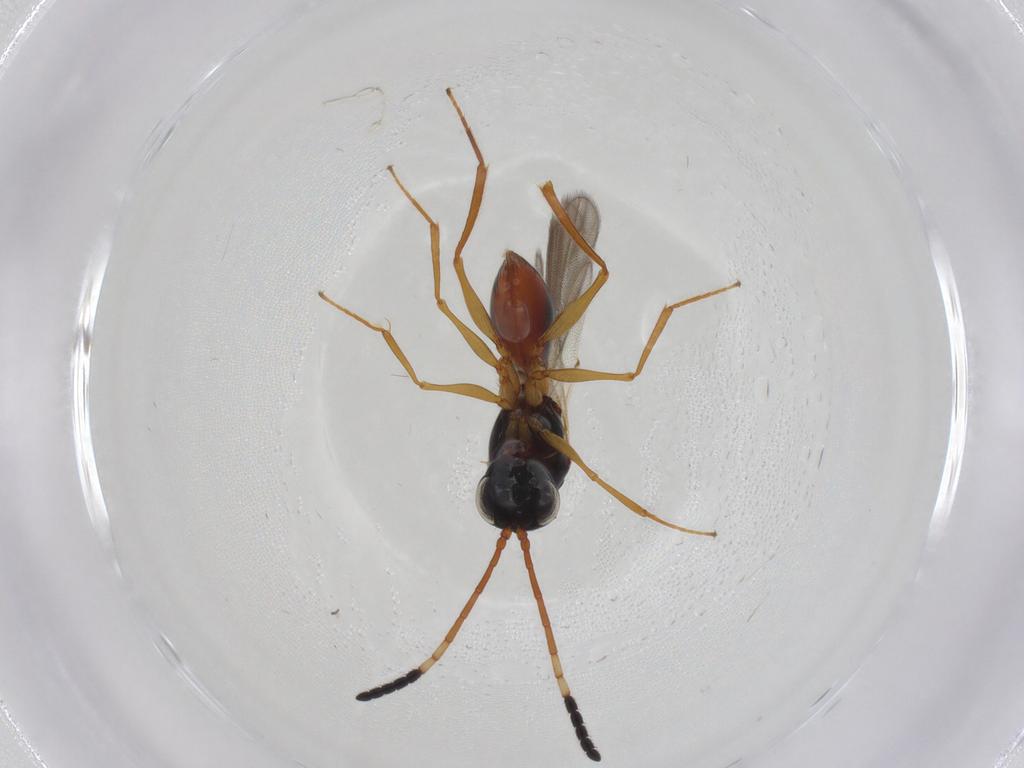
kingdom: Animalia
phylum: Arthropoda
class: Insecta
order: Hymenoptera
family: Figitidae
